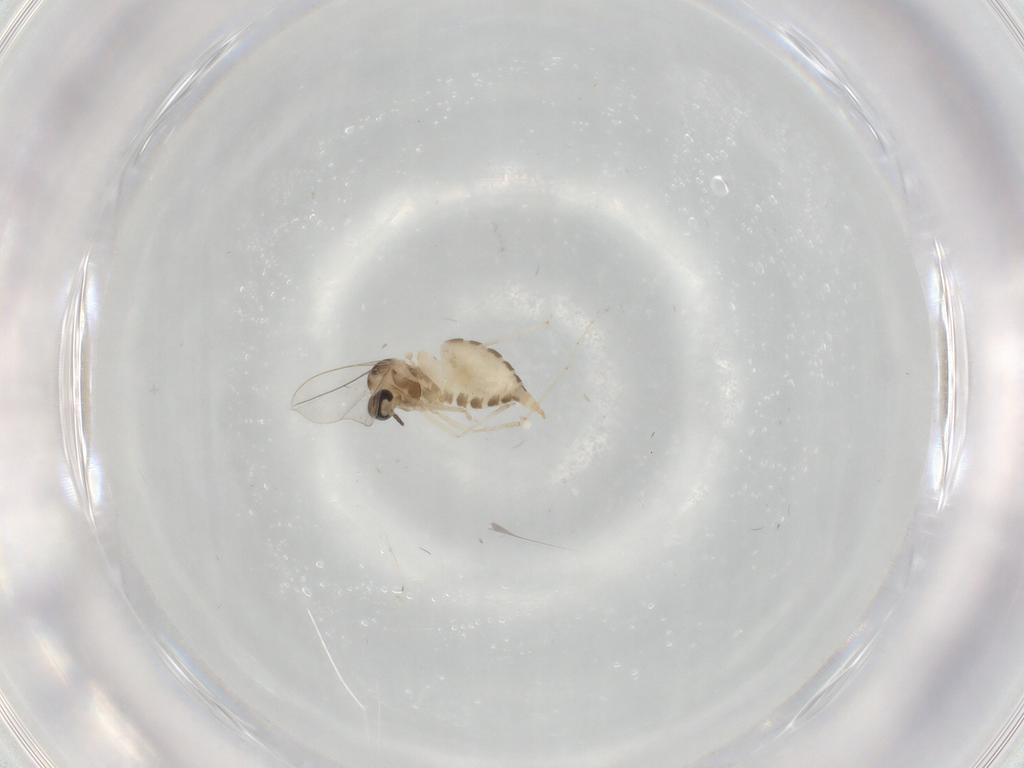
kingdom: Animalia
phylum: Arthropoda
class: Insecta
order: Diptera
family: Cecidomyiidae
